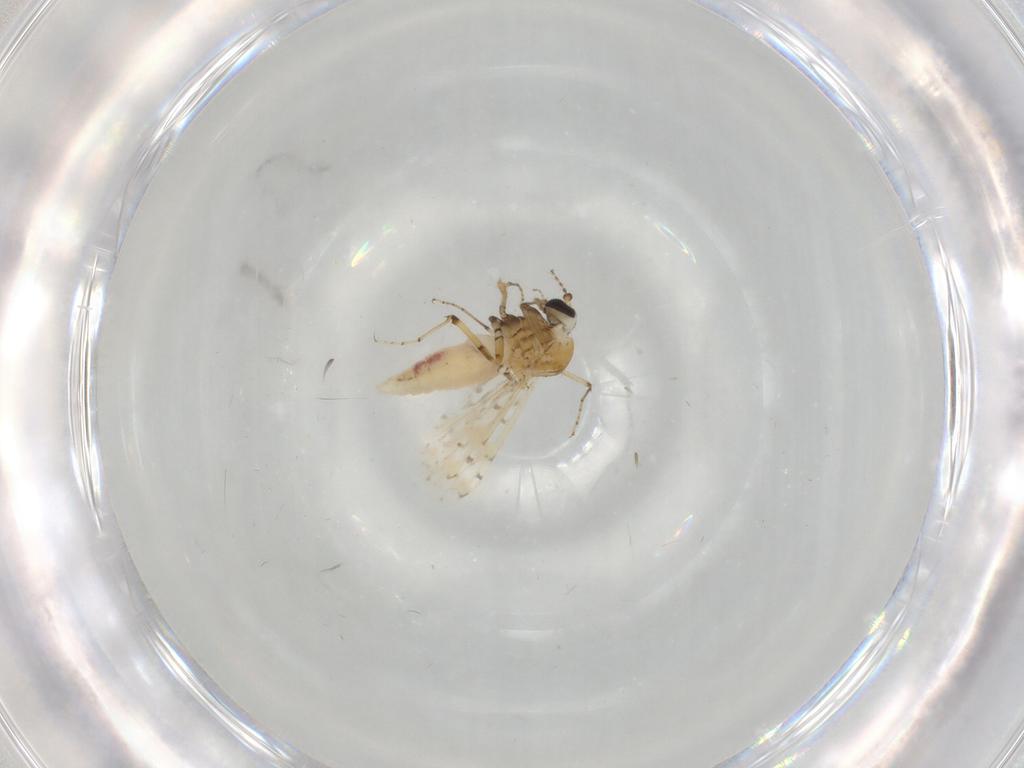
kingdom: Animalia
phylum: Arthropoda
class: Insecta
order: Diptera
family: Ceratopogonidae
